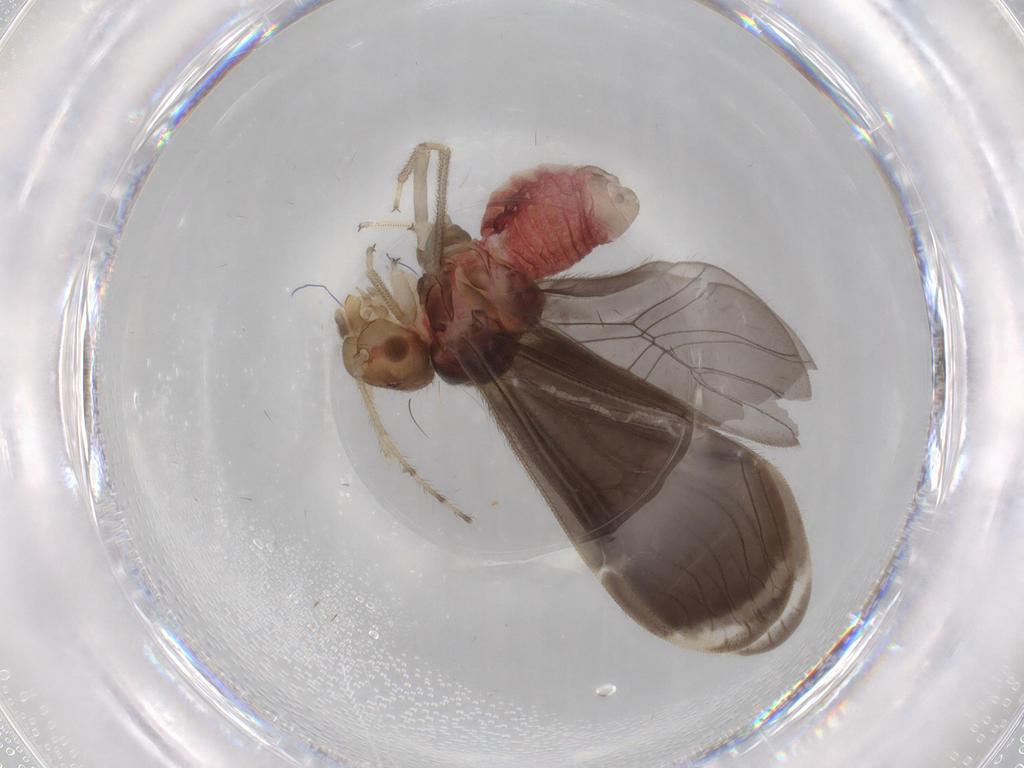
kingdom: Animalia
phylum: Arthropoda
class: Insecta
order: Psocodea
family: Amphipsocidae
